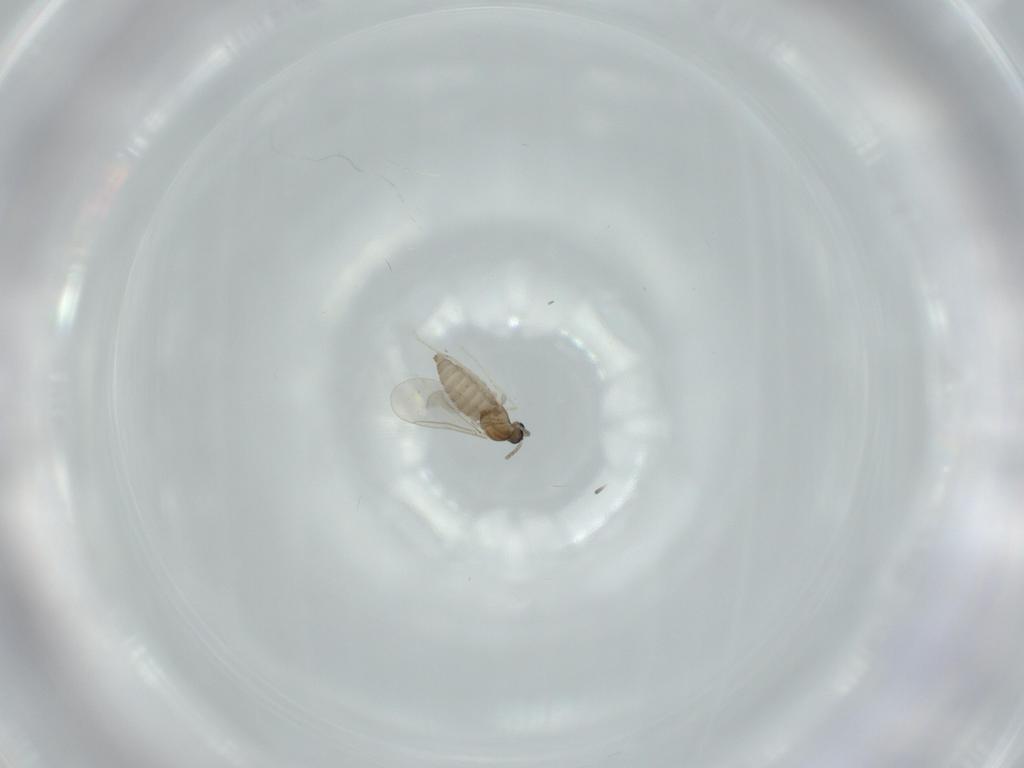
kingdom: Animalia
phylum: Arthropoda
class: Insecta
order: Diptera
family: Cecidomyiidae
